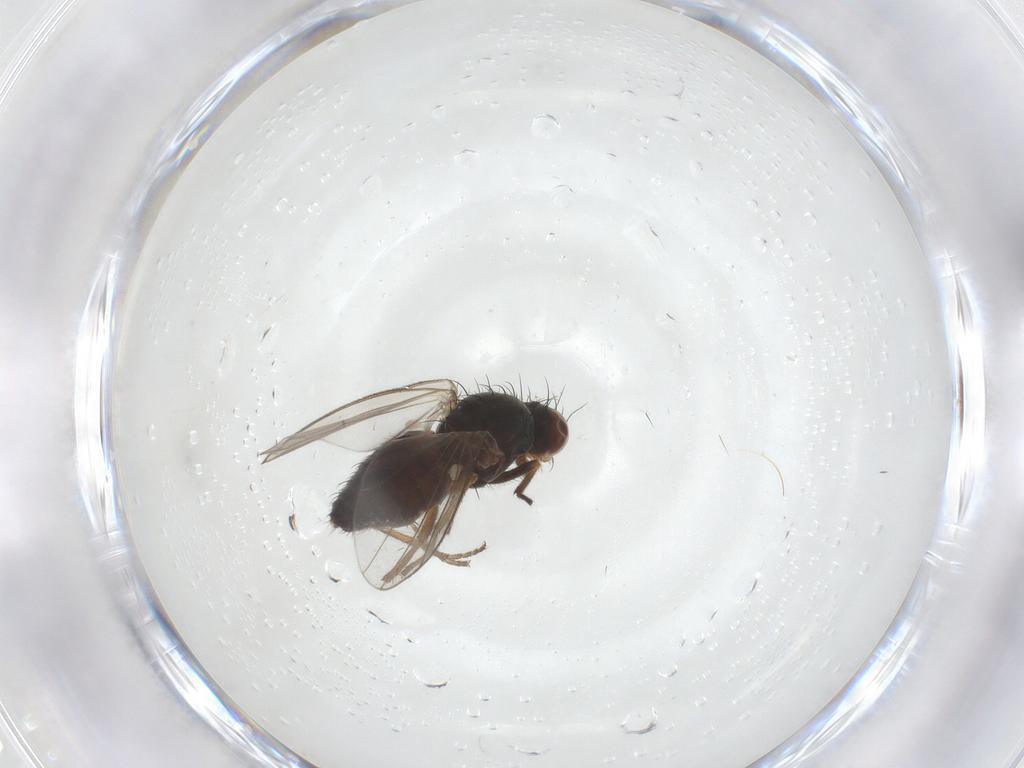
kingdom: Animalia
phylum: Arthropoda
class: Insecta
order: Diptera
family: Heleomyzidae
